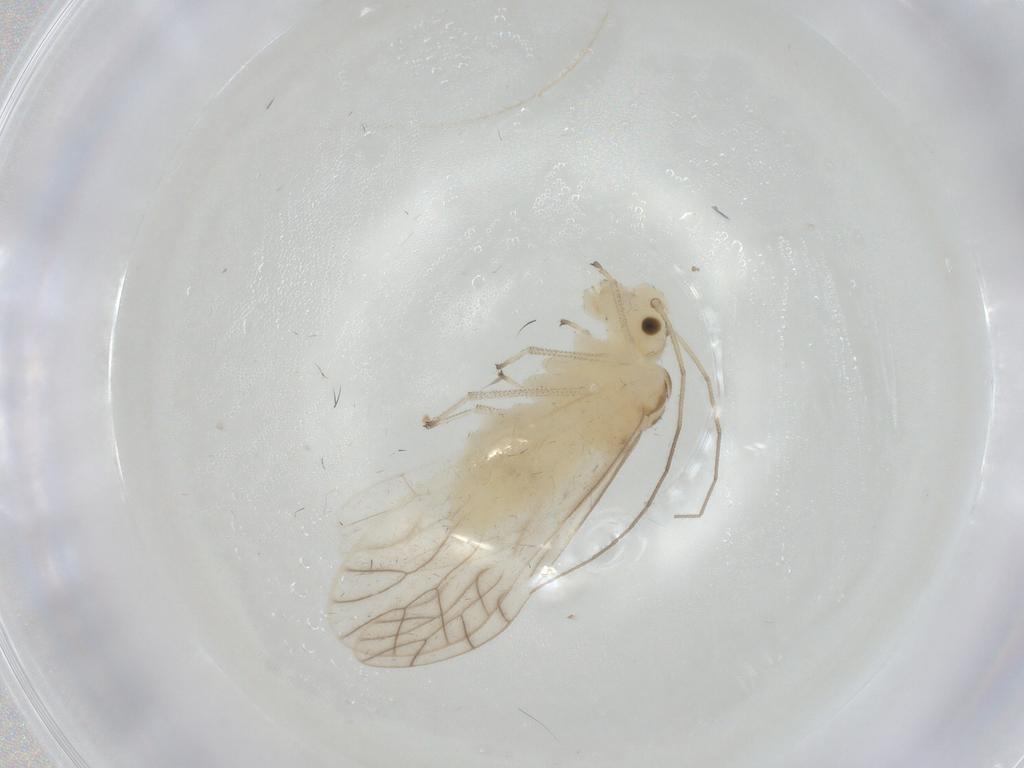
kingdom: Animalia
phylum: Arthropoda
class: Insecta
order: Psocodea
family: Caeciliusidae
